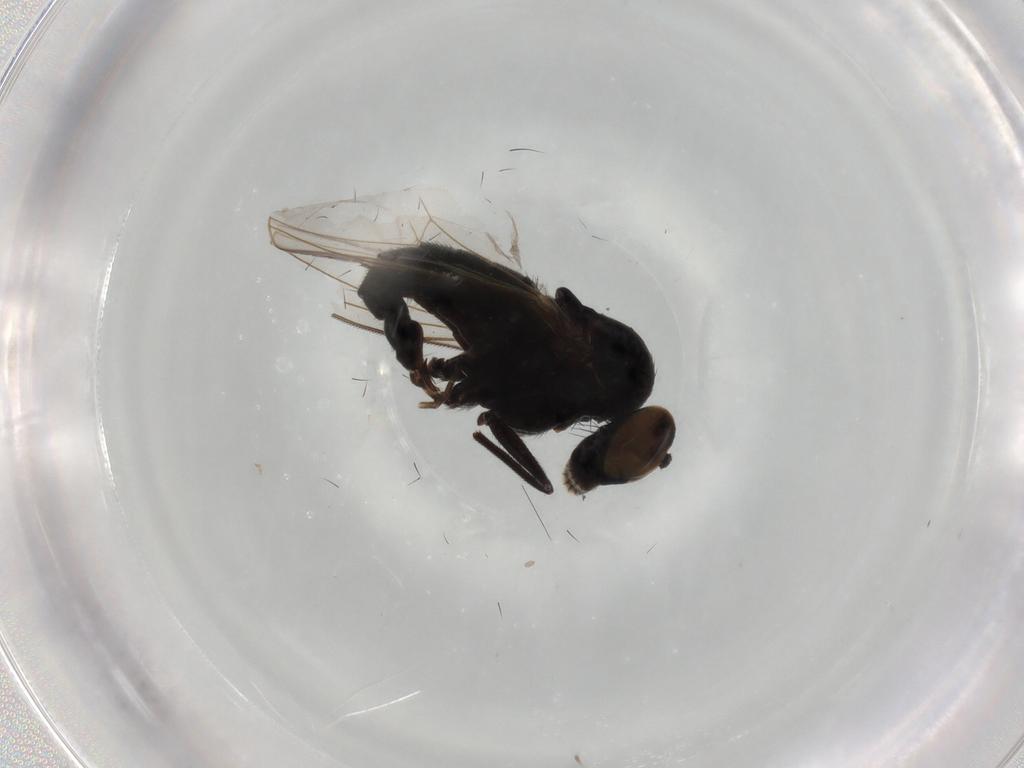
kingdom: Animalia
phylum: Arthropoda
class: Insecta
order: Diptera
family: Dolichopodidae
